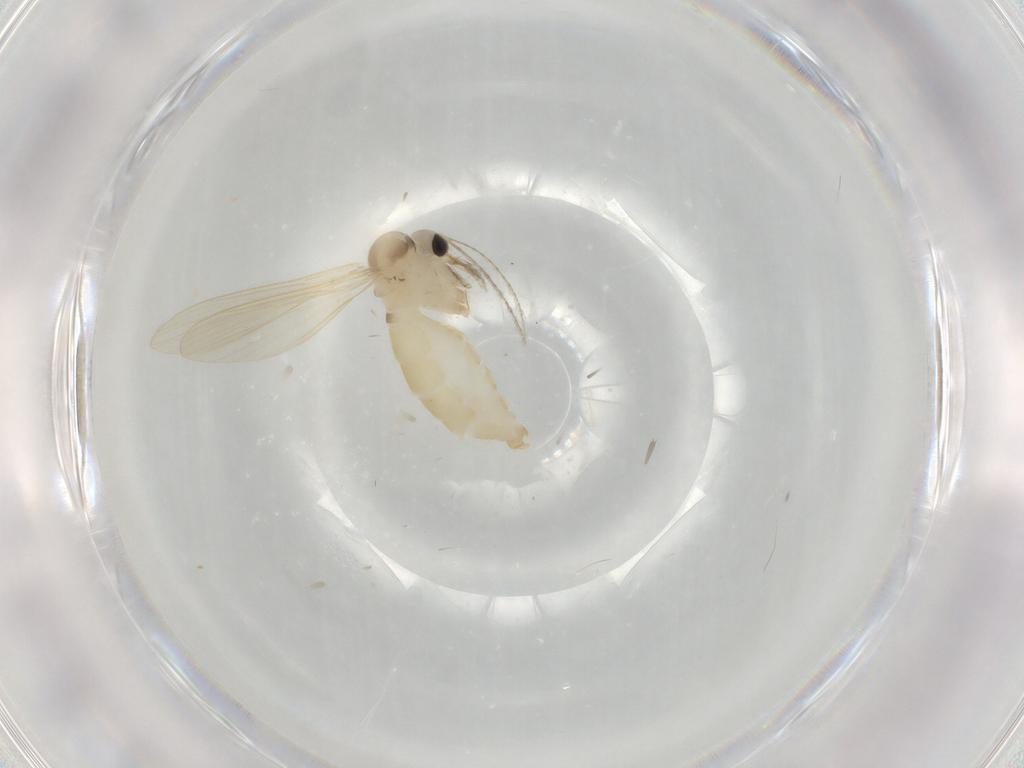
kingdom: Animalia
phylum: Arthropoda
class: Insecta
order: Diptera
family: Psychodidae
